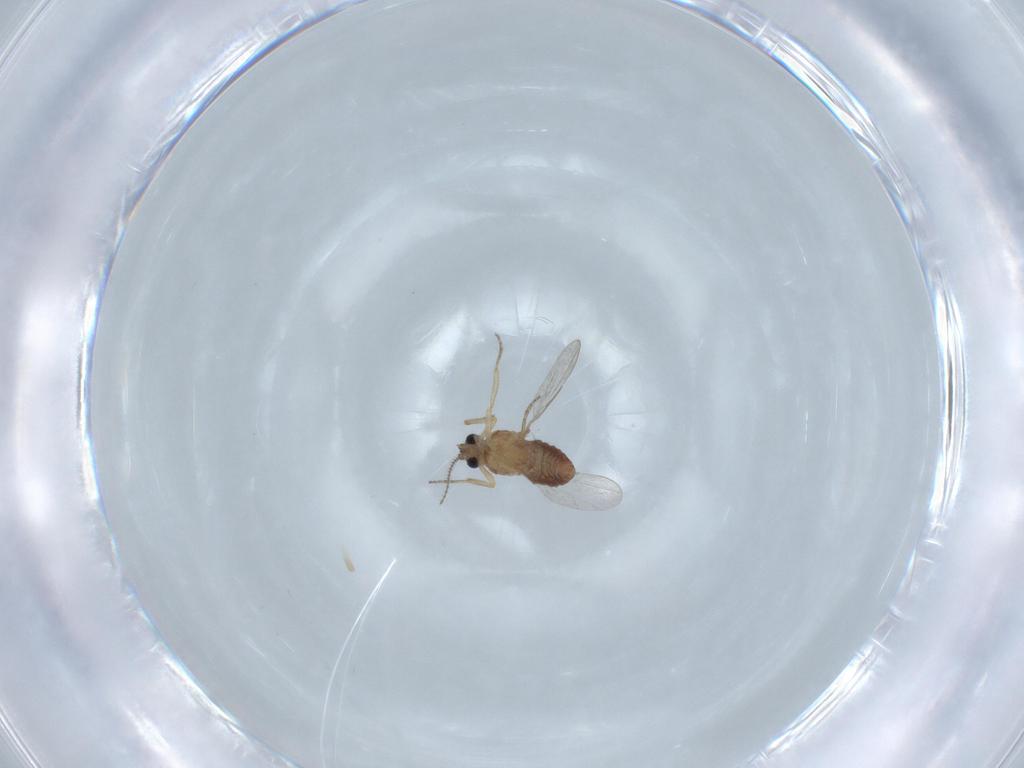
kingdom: Animalia
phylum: Arthropoda
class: Insecta
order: Diptera
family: Ceratopogonidae
